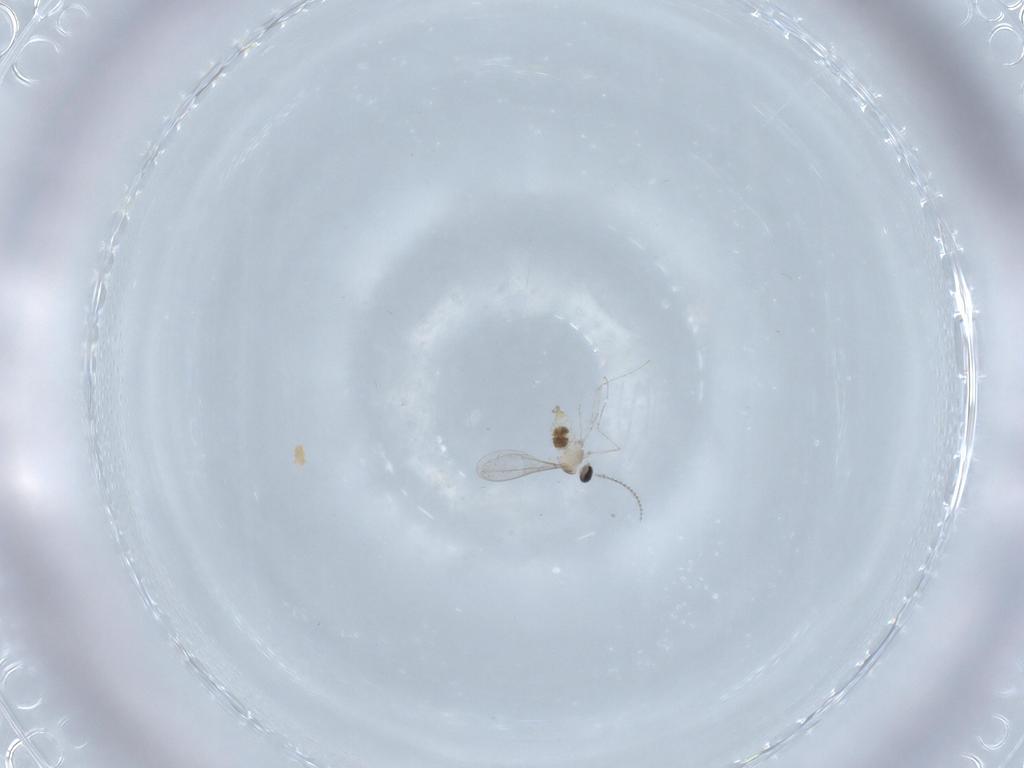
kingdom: Animalia
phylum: Arthropoda
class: Insecta
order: Diptera
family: Cecidomyiidae
